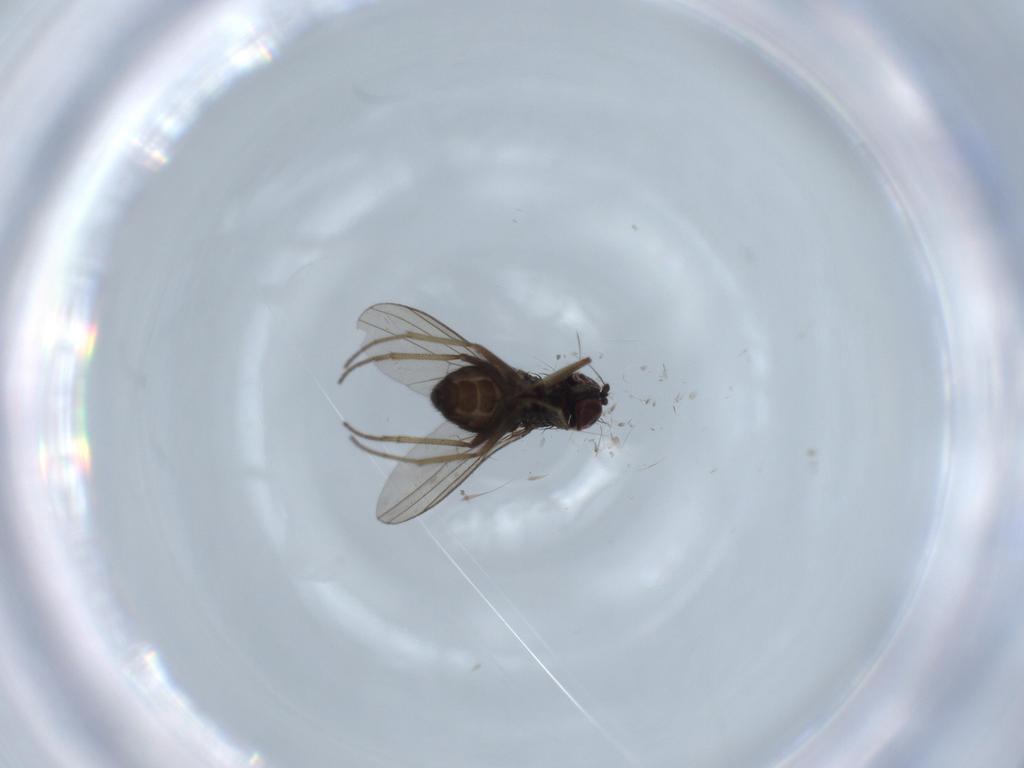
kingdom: Animalia
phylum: Arthropoda
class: Insecta
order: Diptera
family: Dolichopodidae
